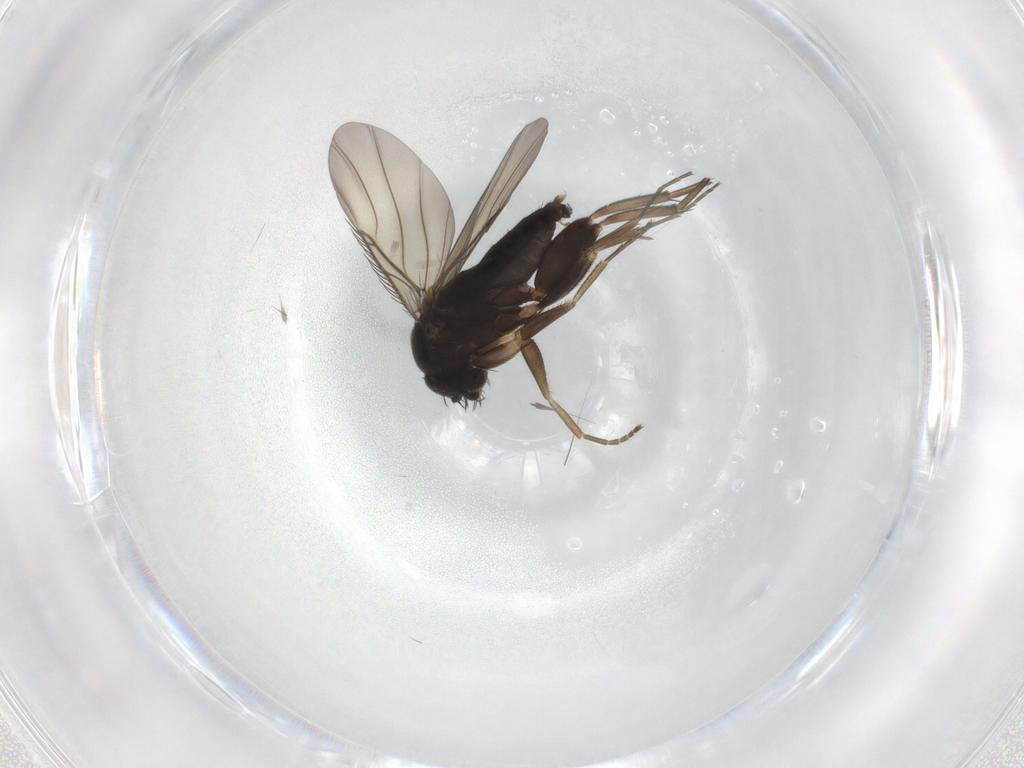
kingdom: Animalia
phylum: Arthropoda
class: Insecta
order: Diptera
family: Phoridae
